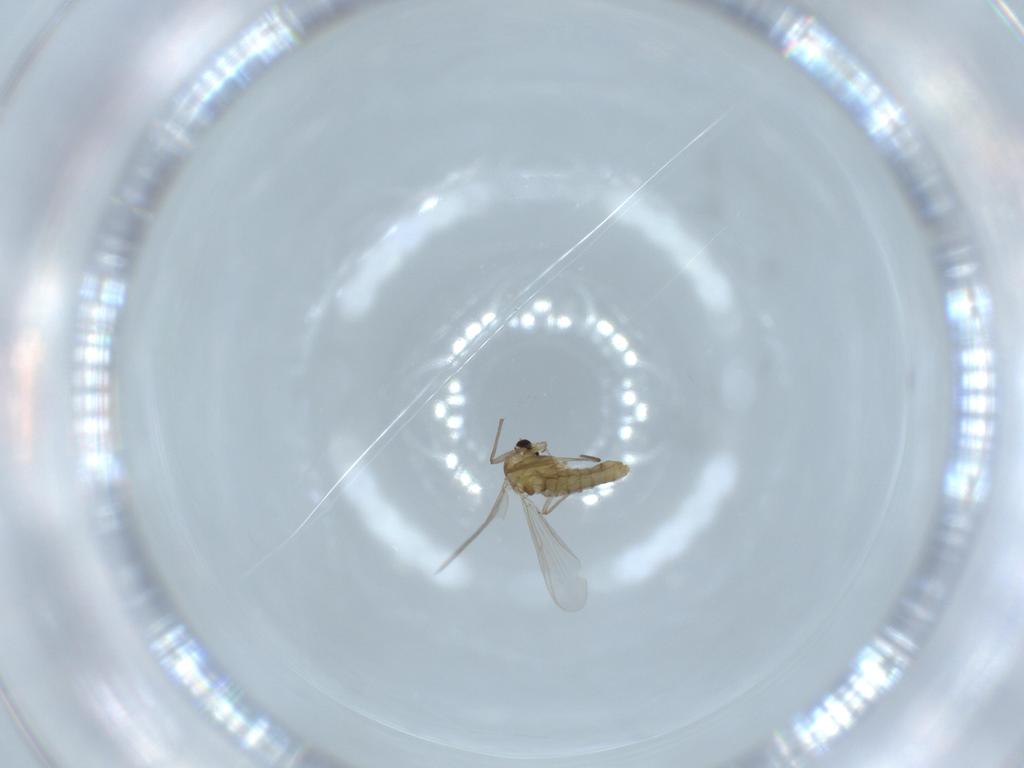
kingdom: Animalia
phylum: Arthropoda
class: Insecta
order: Diptera
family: Chironomidae
